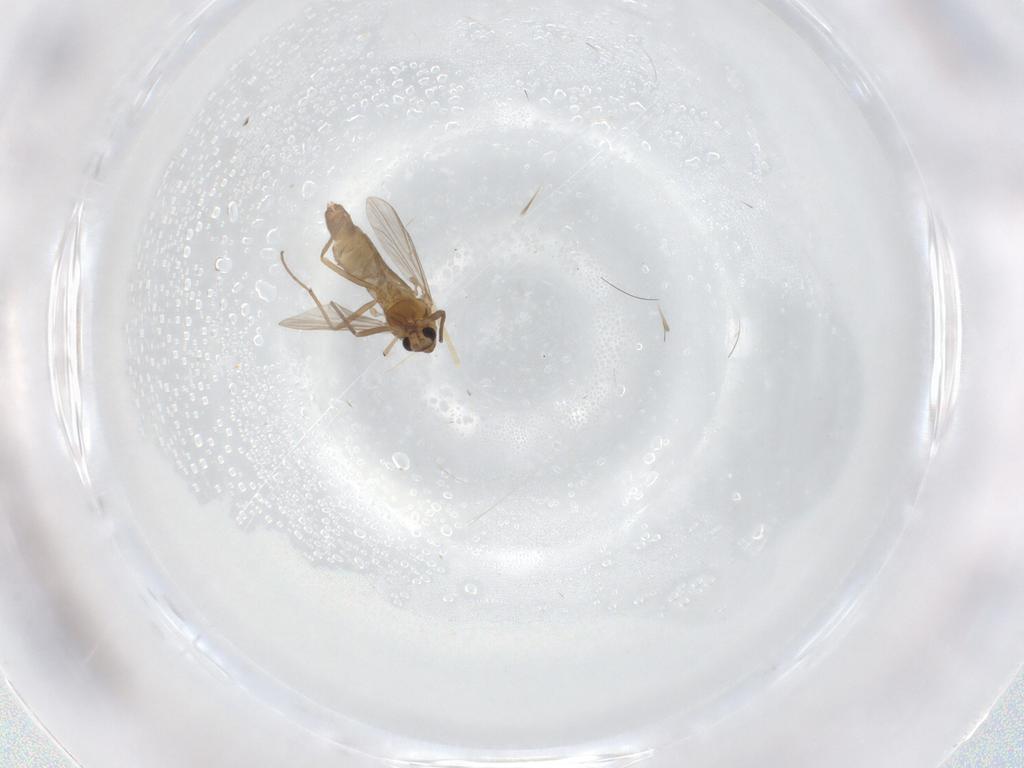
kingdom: Animalia
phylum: Arthropoda
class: Insecta
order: Diptera
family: Chironomidae
